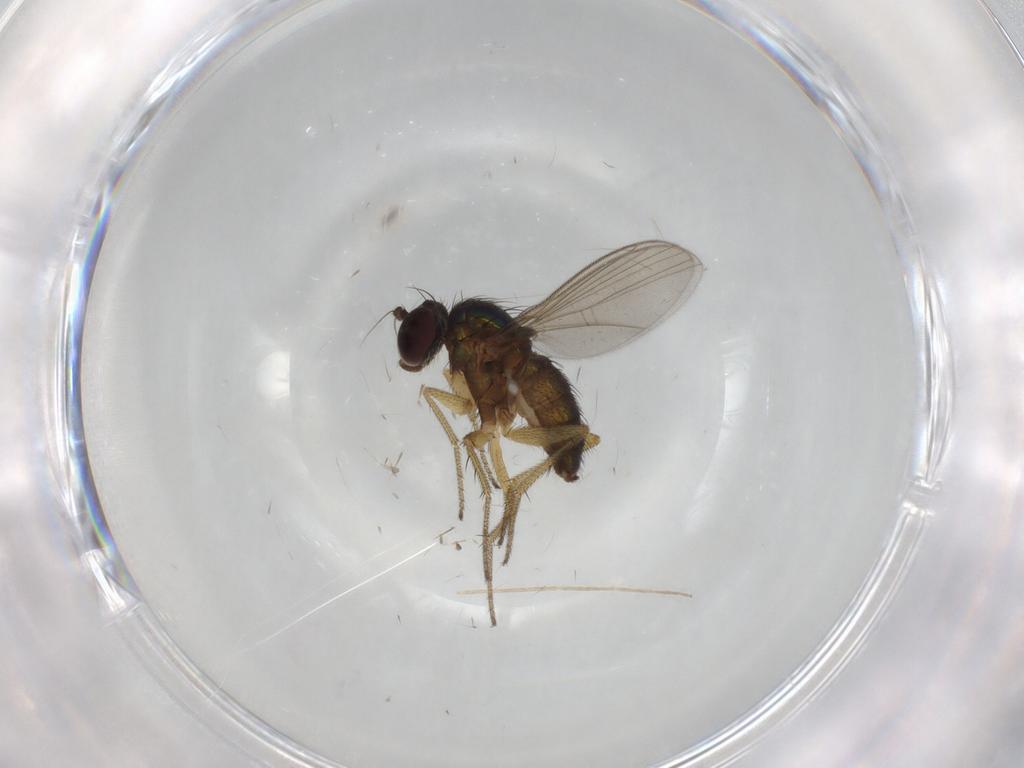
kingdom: Animalia
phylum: Arthropoda
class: Insecta
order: Diptera
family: Dolichopodidae
